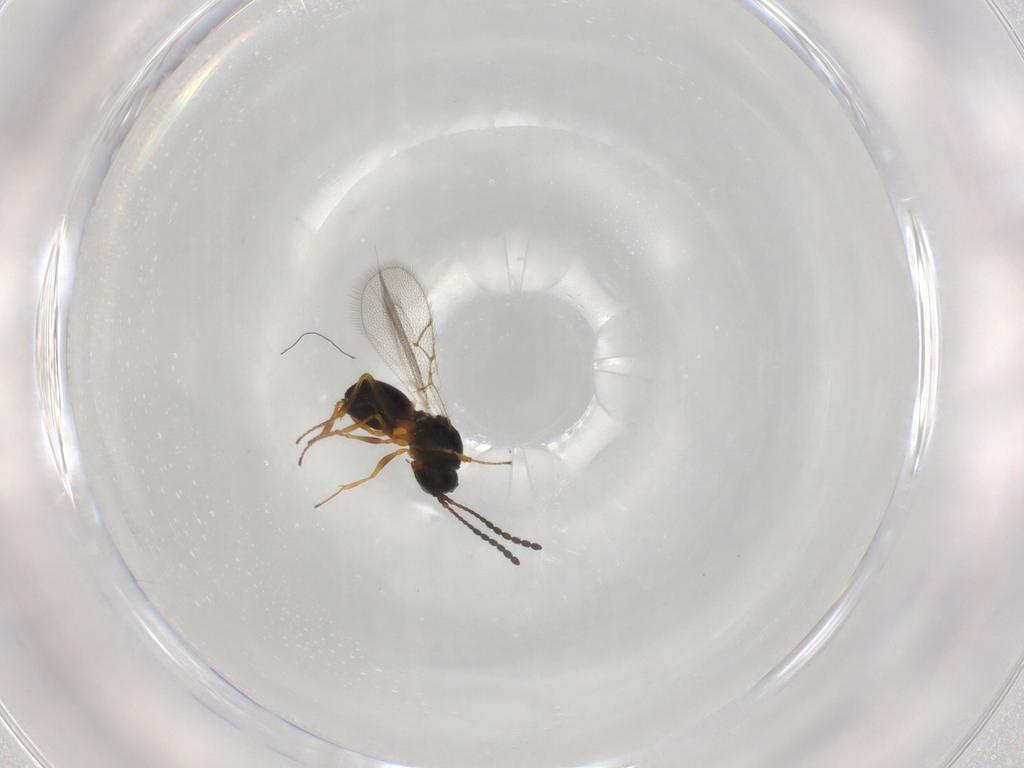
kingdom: Animalia
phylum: Arthropoda
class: Insecta
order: Hymenoptera
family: Figitidae
